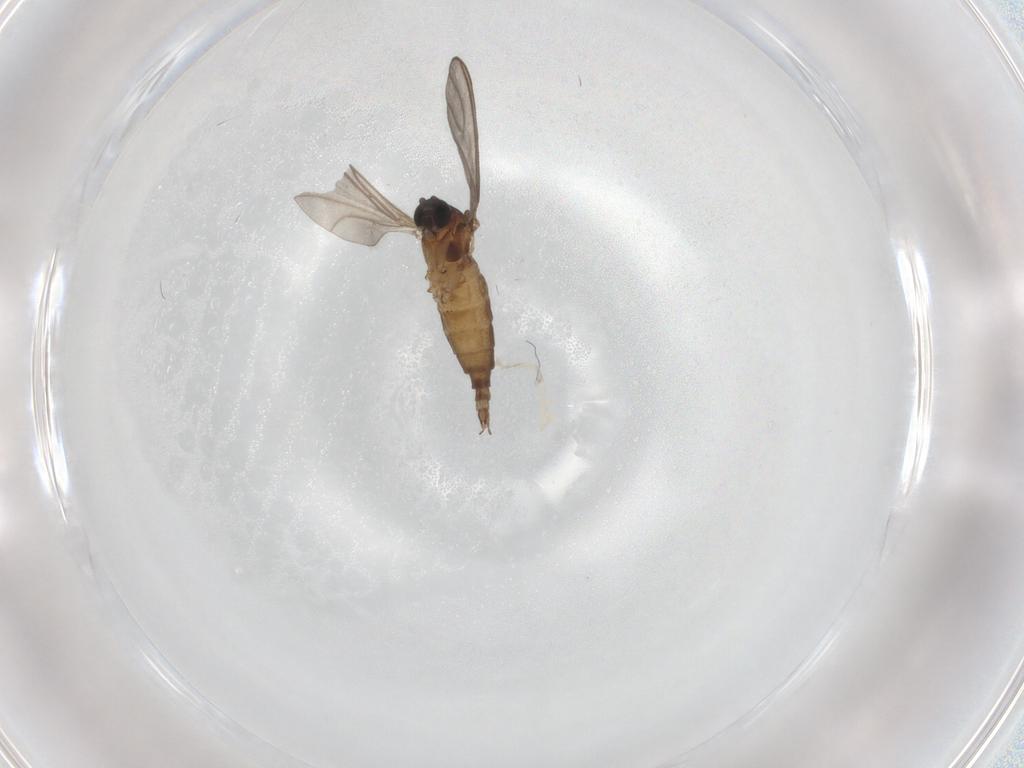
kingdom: Animalia
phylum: Arthropoda
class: Insecta
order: Diptera
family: Sciaridae
